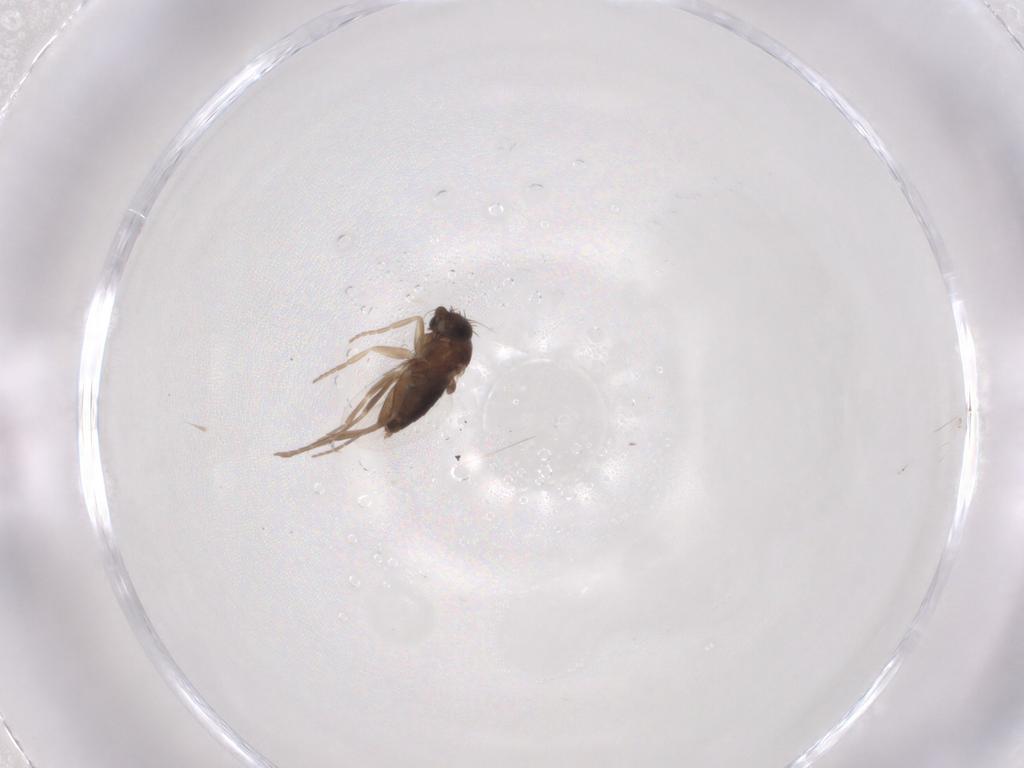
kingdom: Animalia
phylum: Arthropoda
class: Insecta
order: Diptera
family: Phoridae
